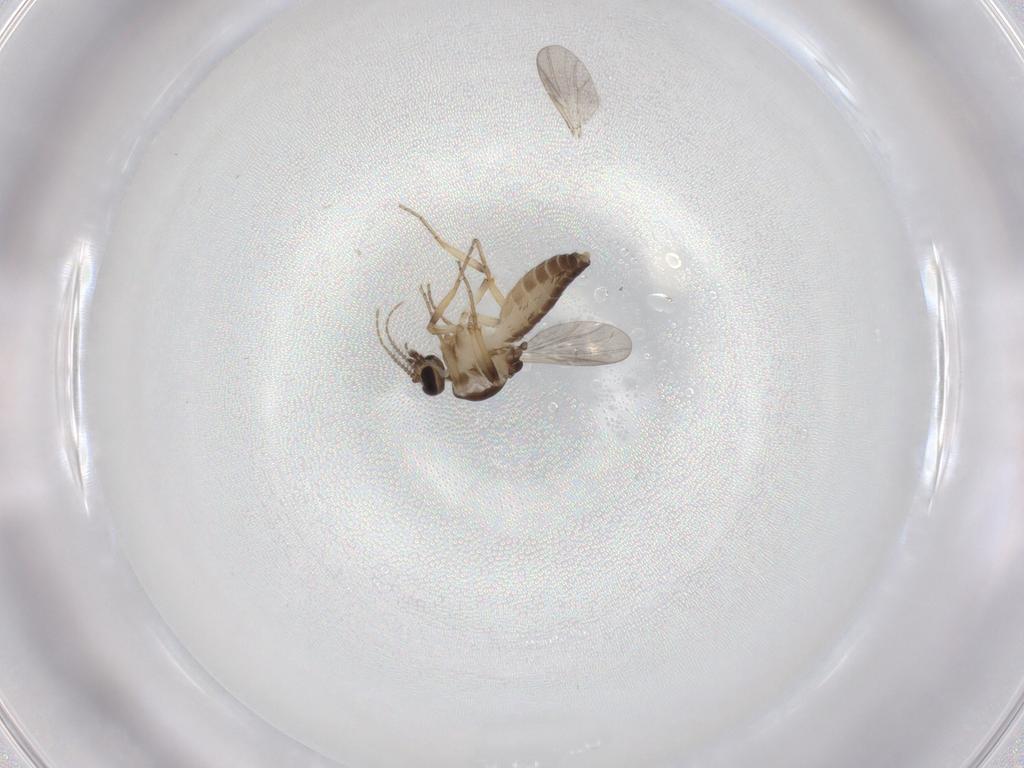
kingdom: Animalia
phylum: Arthropoda
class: Insecta
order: Diptera
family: Ceratopogonidae
